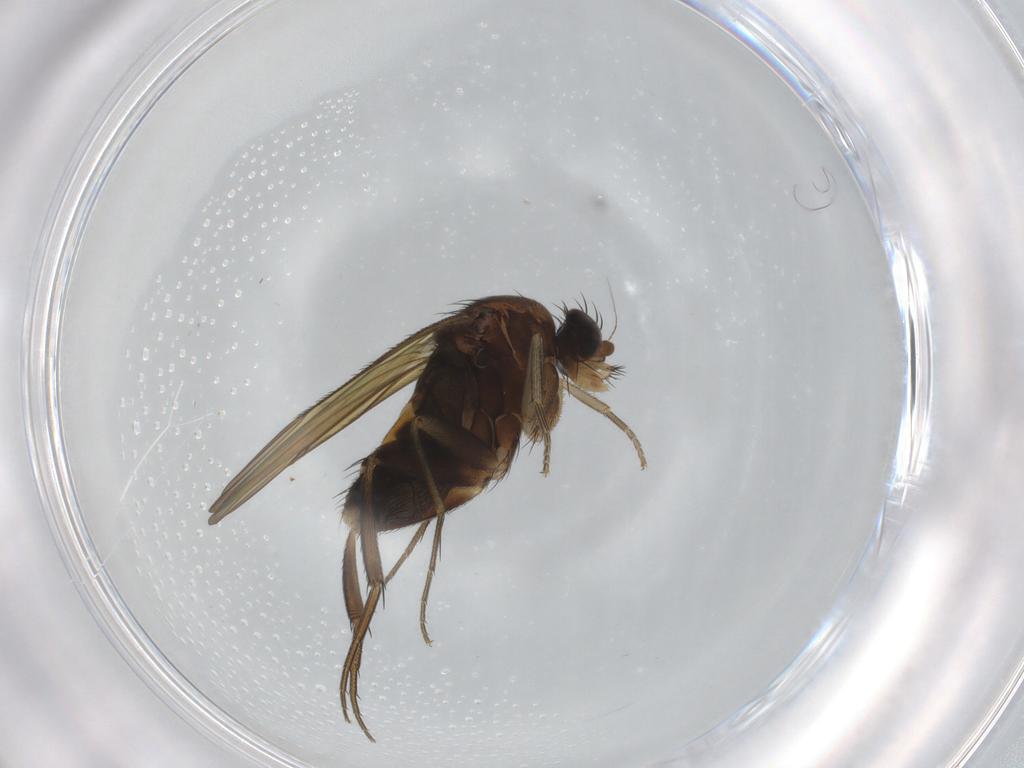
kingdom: Animalia
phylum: Arthropoda
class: Insecta
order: Diptera
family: Phoridae
